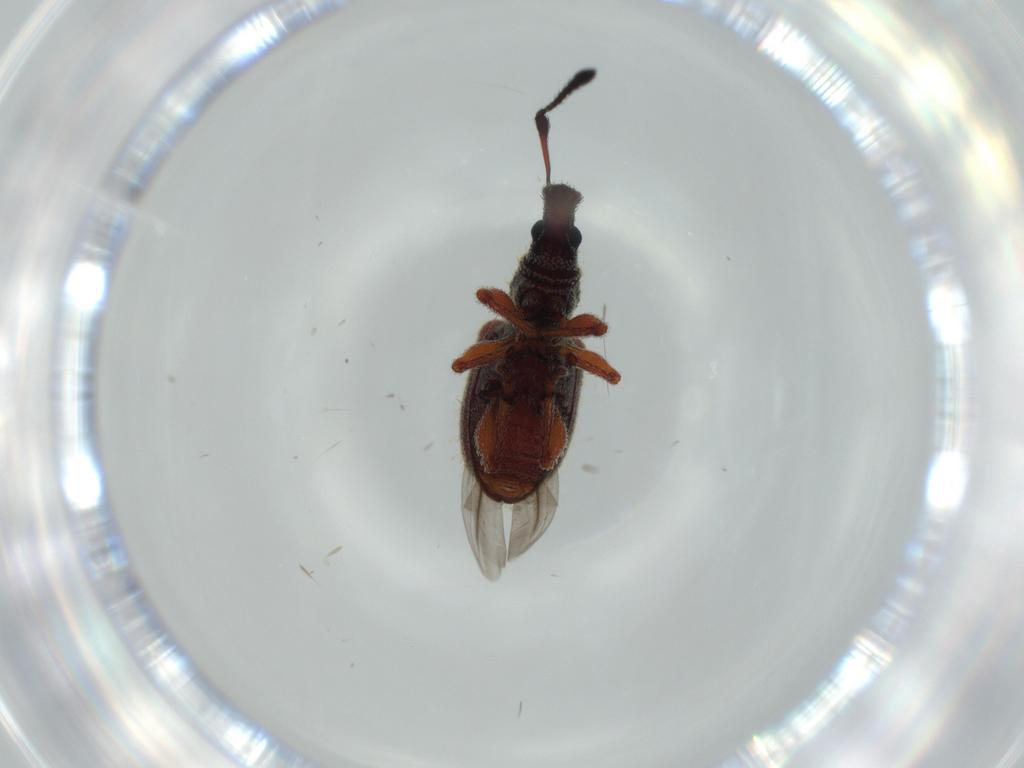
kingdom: Animalia
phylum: Arthropoda
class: Insecta
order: Coleoptera
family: Curculionidae
